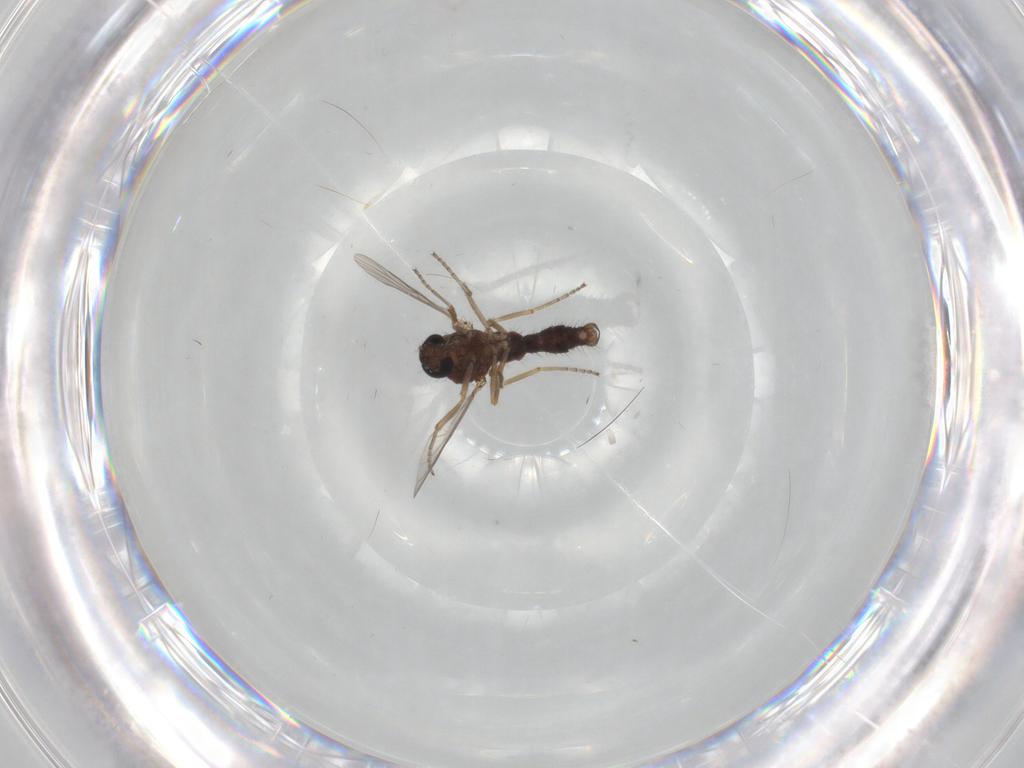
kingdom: Animalia
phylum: Arthropoda
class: Insecta
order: Diptera
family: Ceratopogonidae
